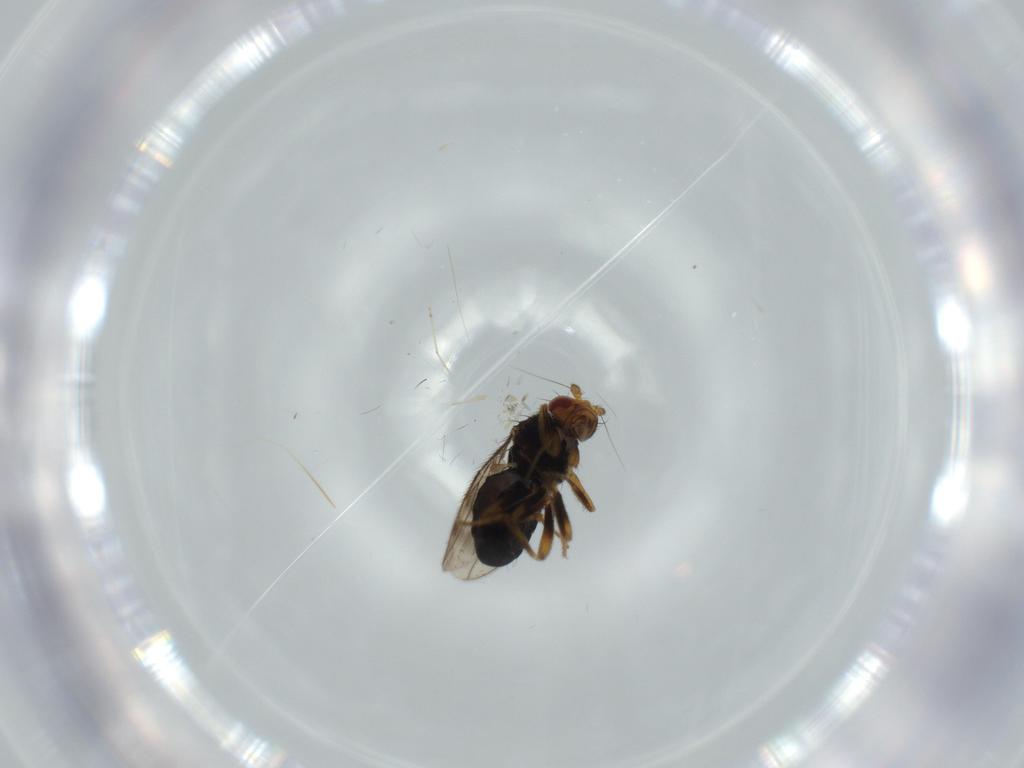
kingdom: Animalia
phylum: Arthropoda
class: Insecta
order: Diptera
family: Sphaeroceridae
